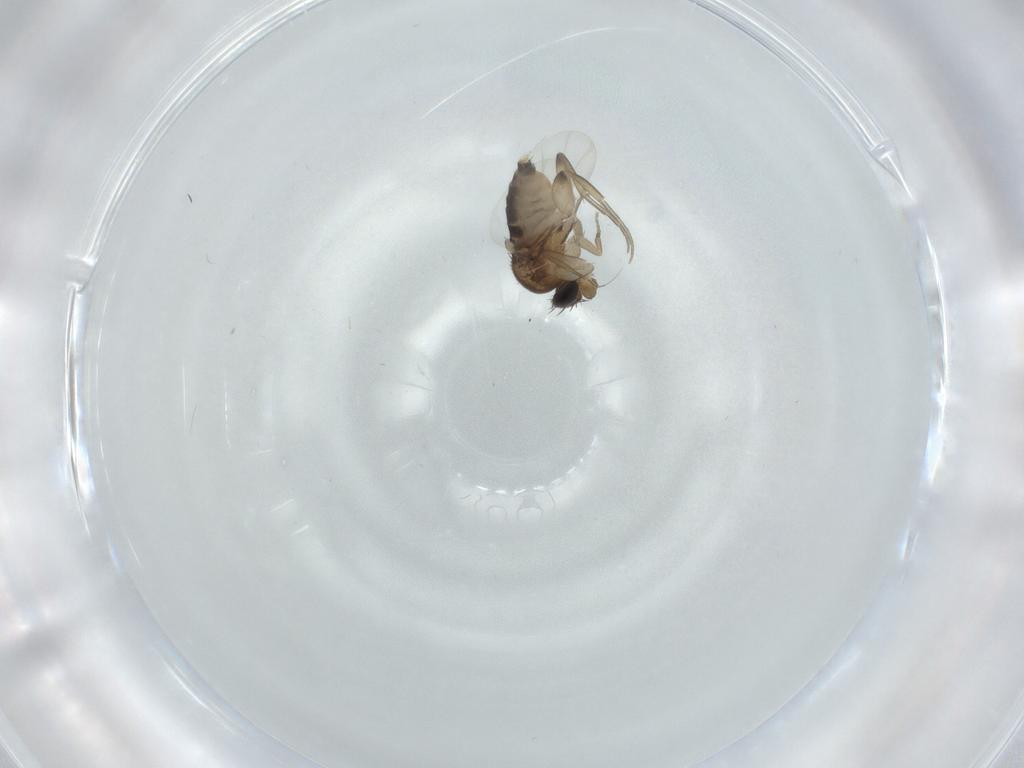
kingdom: Animalia
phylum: Arthropoda
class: Insecta
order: Diptera
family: Phoridae
